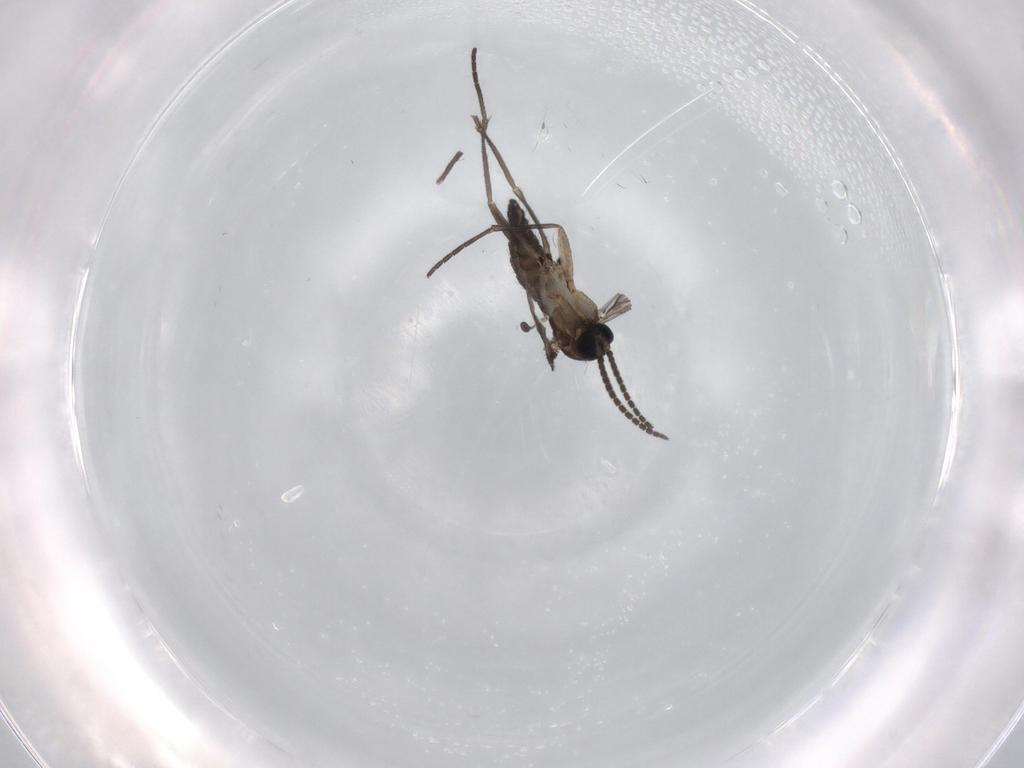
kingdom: Animalia
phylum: Arthropoda
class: Insecta
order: Diptera
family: Sciaridae
